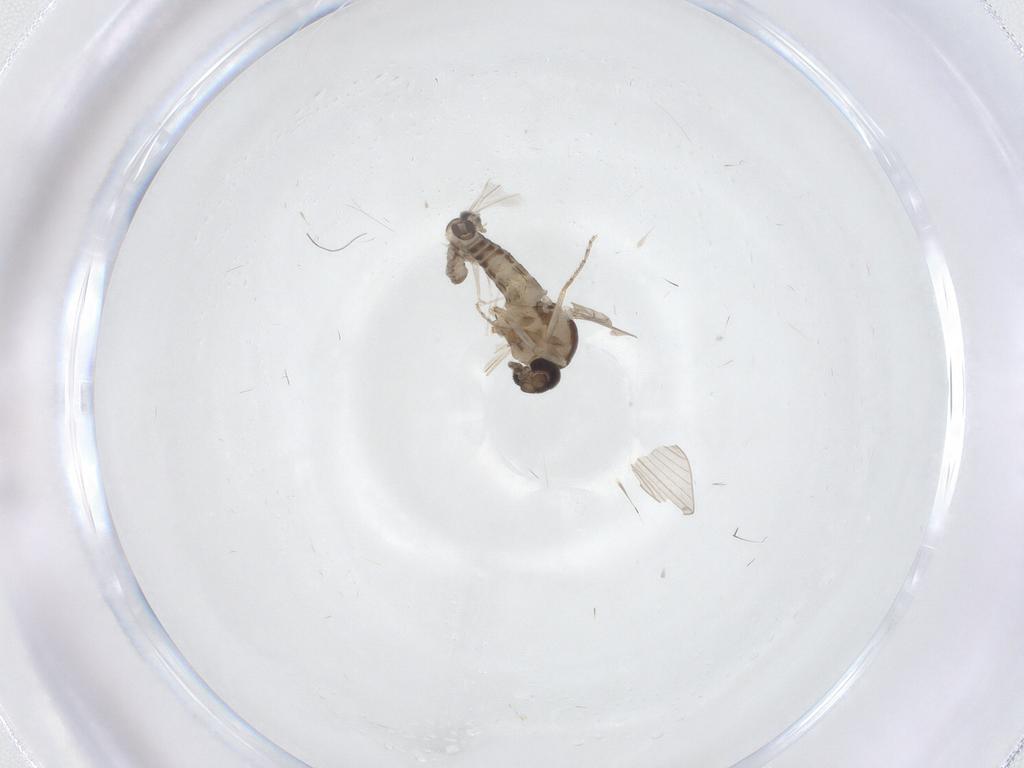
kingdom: Animalia
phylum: Arthropoda
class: Insecta
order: Diptera
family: Ceratopogonidae
